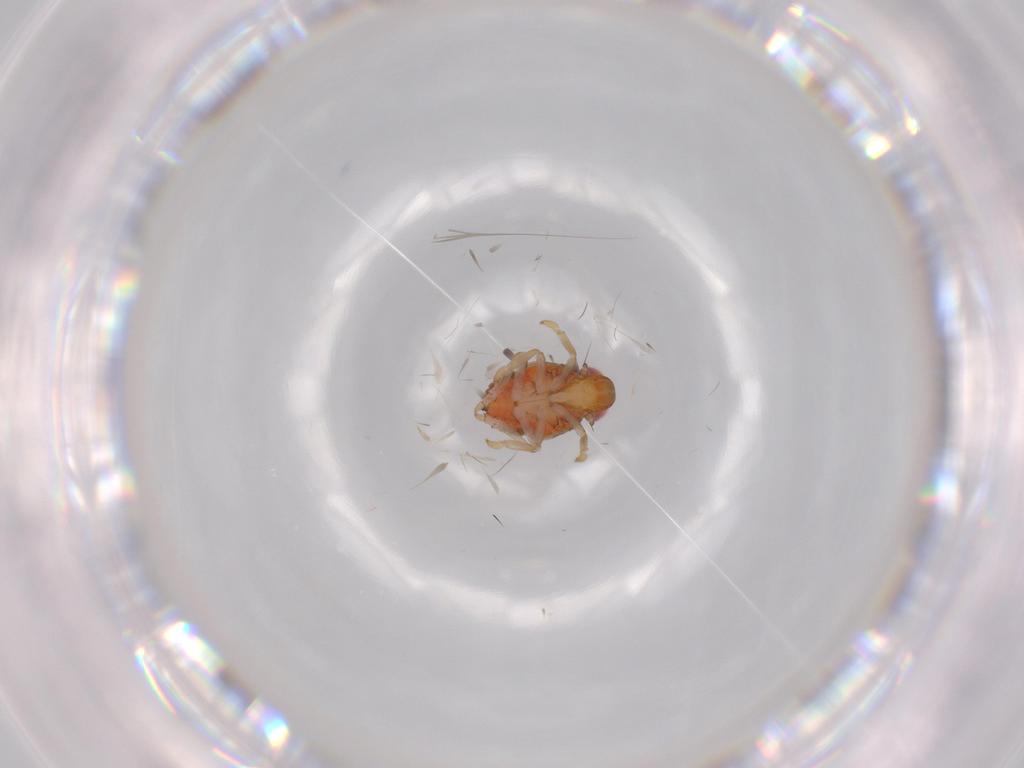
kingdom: Animalia
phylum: Arthropoda
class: Insecta
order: Hemiptera
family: Issidae
